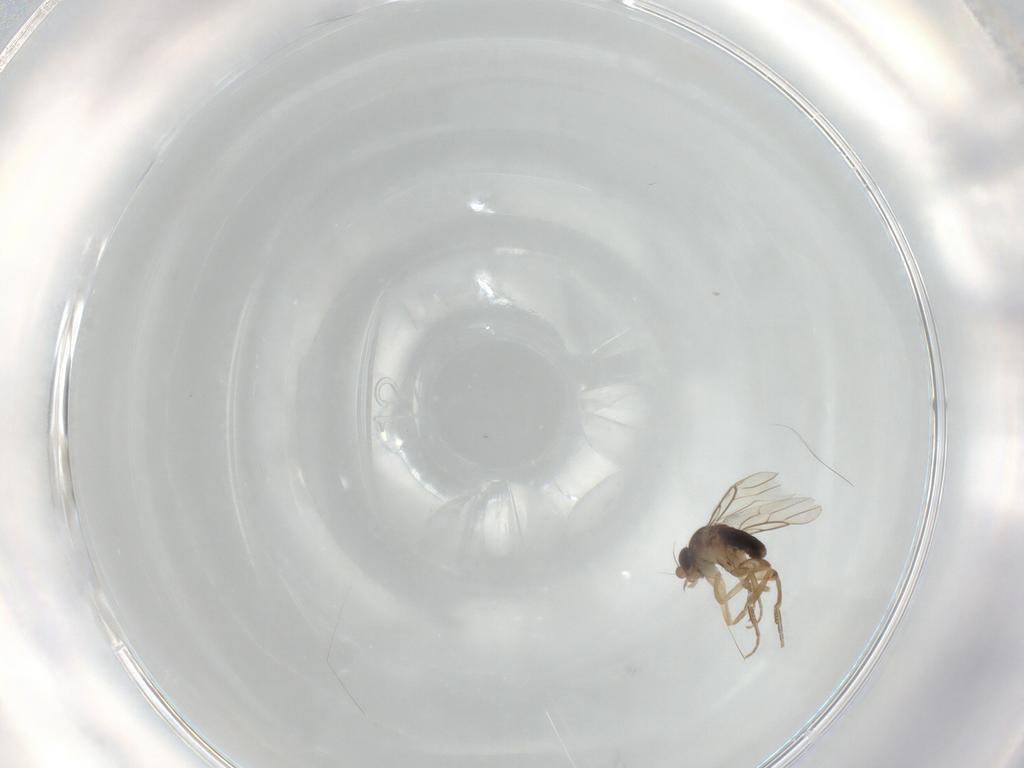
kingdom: Animalia
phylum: Arthropoda
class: Insecta
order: Diptera
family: Phoridae
